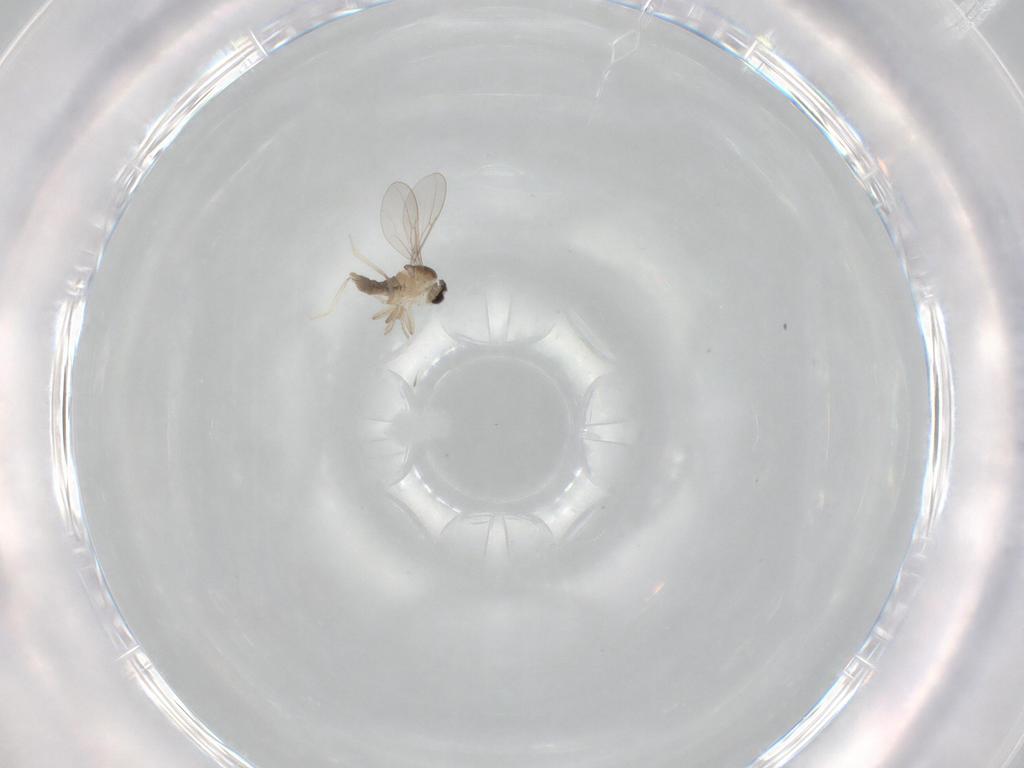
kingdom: Animalia
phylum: Arthropoda
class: Insecta
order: Diptera
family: Cecidomyiidae
